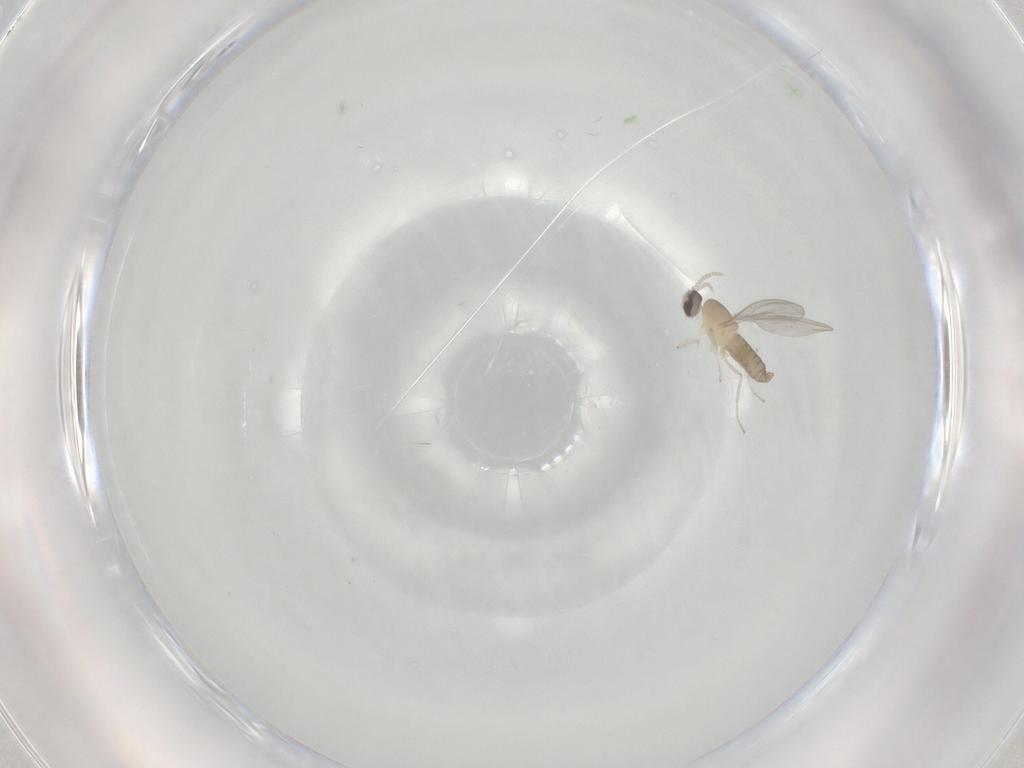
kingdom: Animalia
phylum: Arthropoda
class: Insecta
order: Diptera
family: Cecidomyiidae
